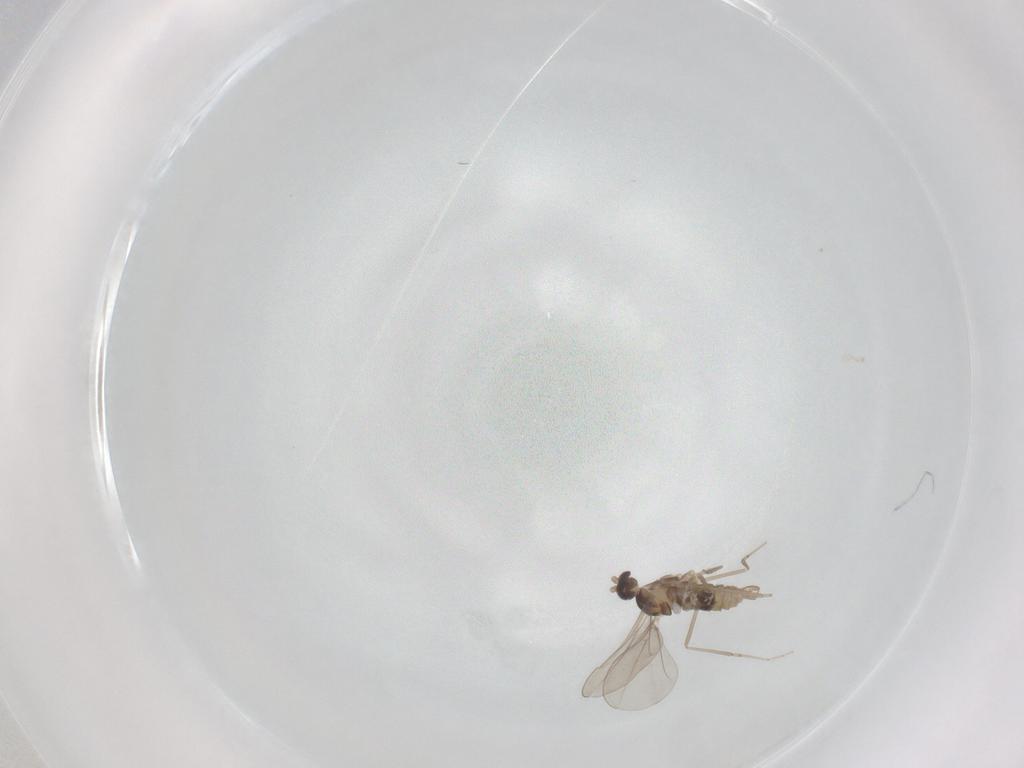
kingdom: Animalia
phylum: Arthropoda
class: Insecta
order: Diptera
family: Cecidomyiidae
